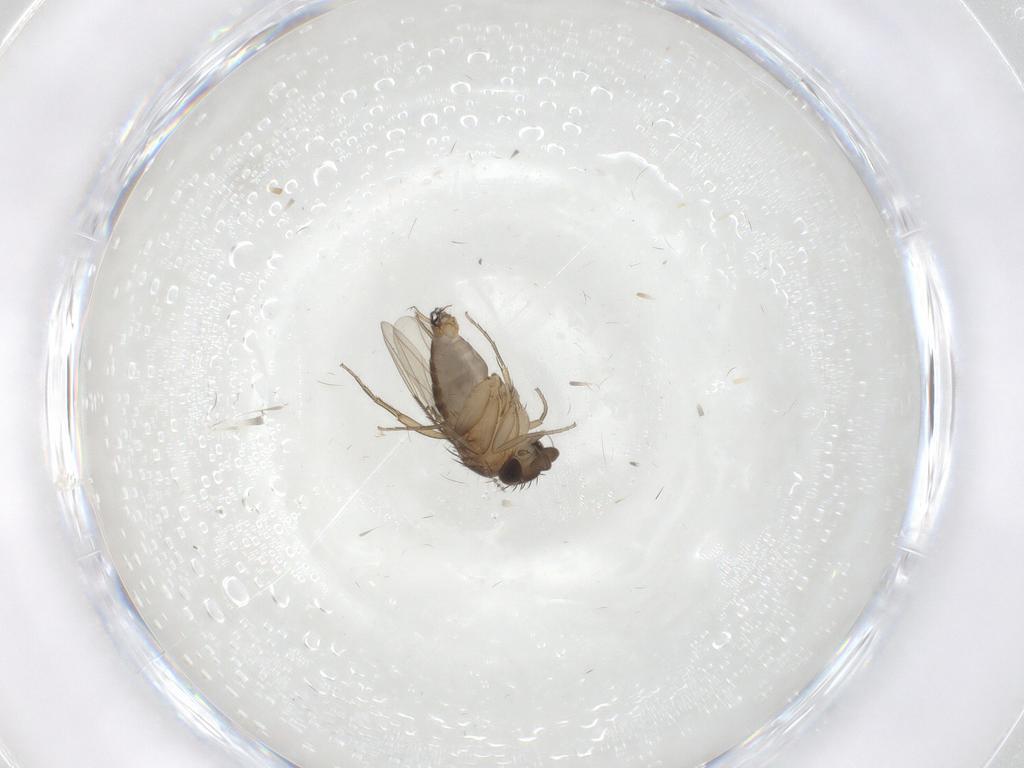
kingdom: Animalia
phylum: Arthropoda
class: Insecta
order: Diptera
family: Phoridae
